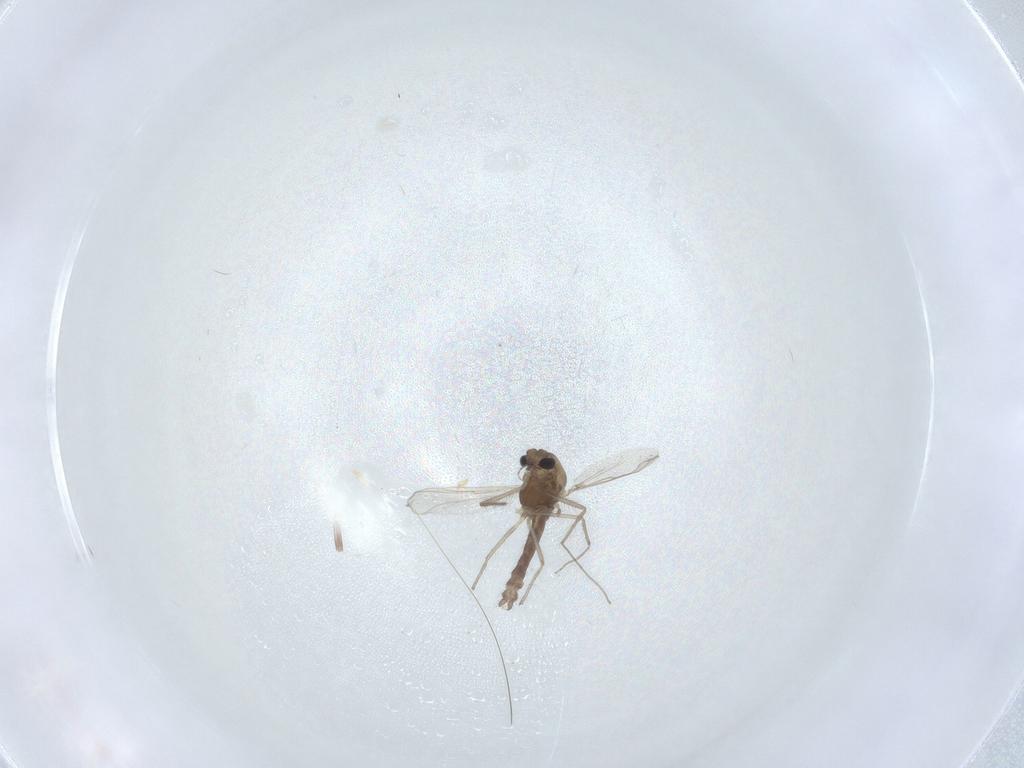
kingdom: Animalia
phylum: Arthropoda
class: Insecta
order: Diptera
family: Chironomidae
